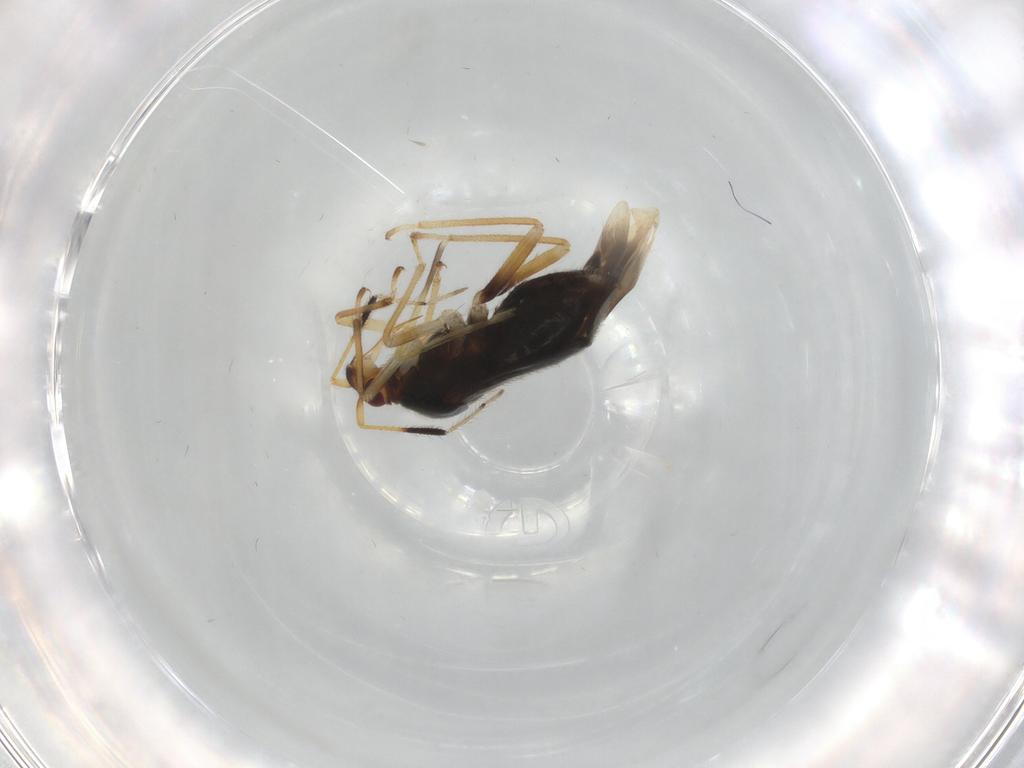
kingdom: Animalia
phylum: Arthropoda
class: Insecta
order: Hemiptera
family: Miridae
